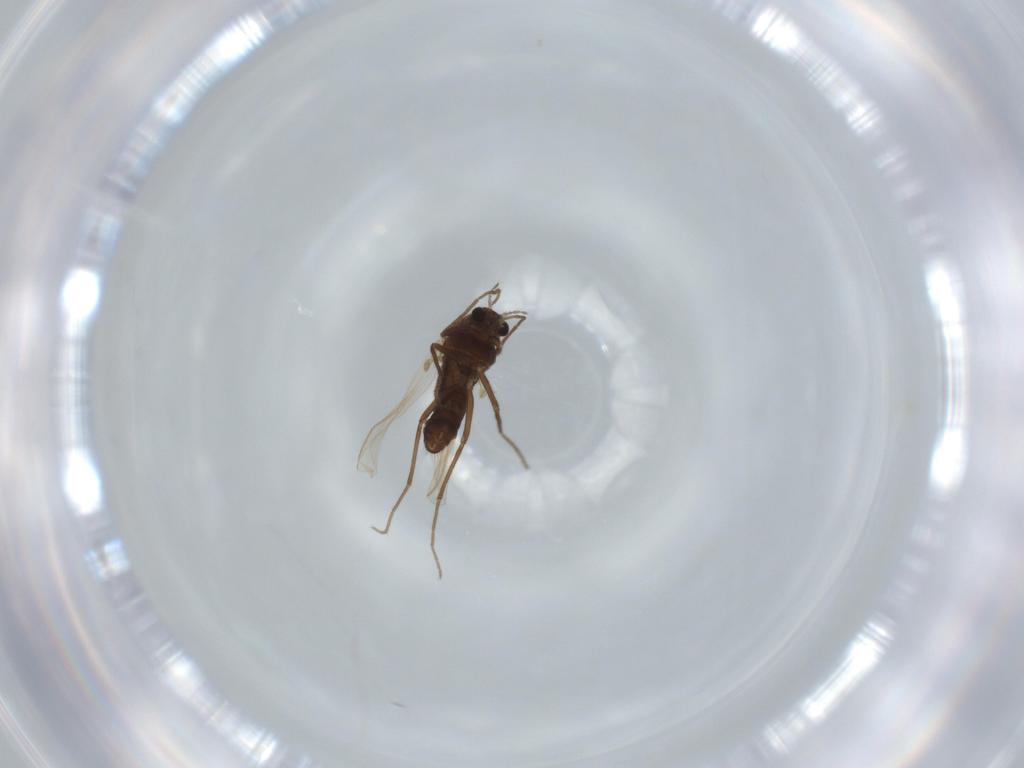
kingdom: Animalia
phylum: Arthropoda
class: Insecta
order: Diptera
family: Chironomidae
